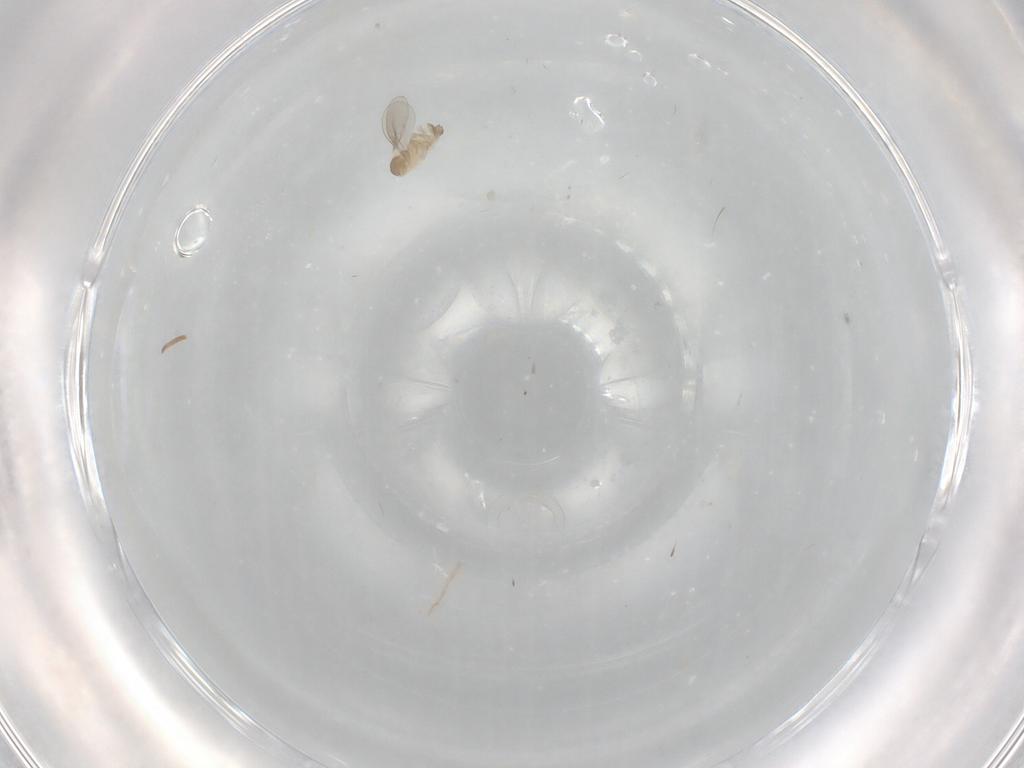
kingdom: Animalia
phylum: Arthropoda
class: Insecta
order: Diptera
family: Cecidomyiidae
